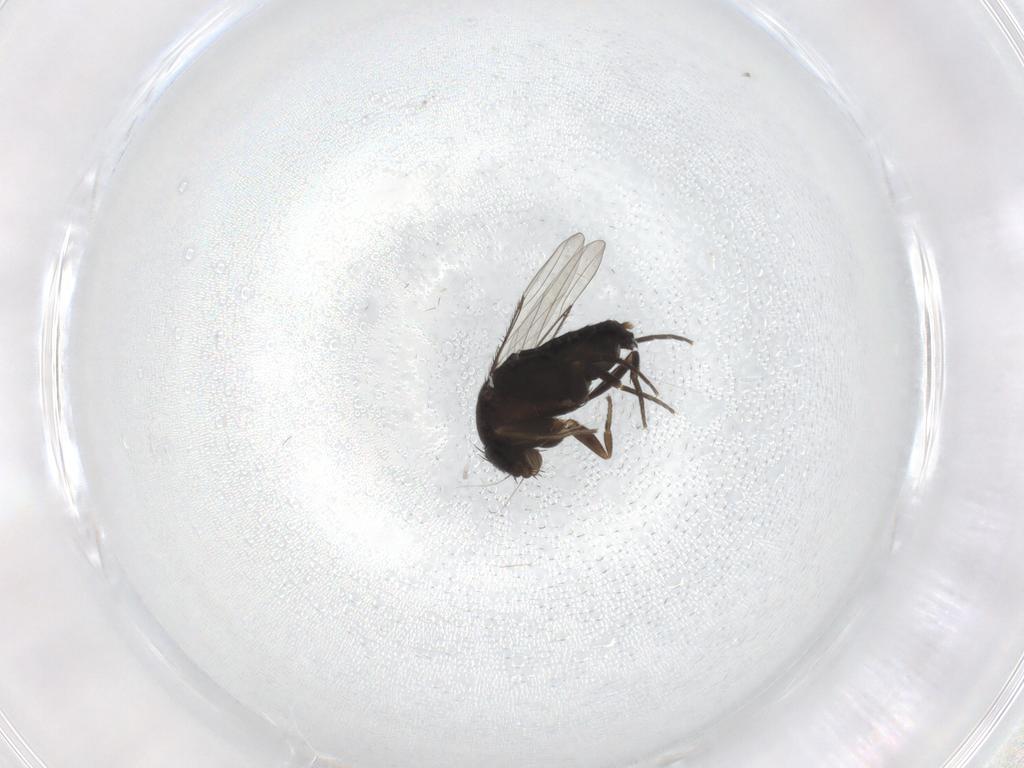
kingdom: Animalia
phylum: Arthropoda
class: Insecta
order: Diptera
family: Phoridae
